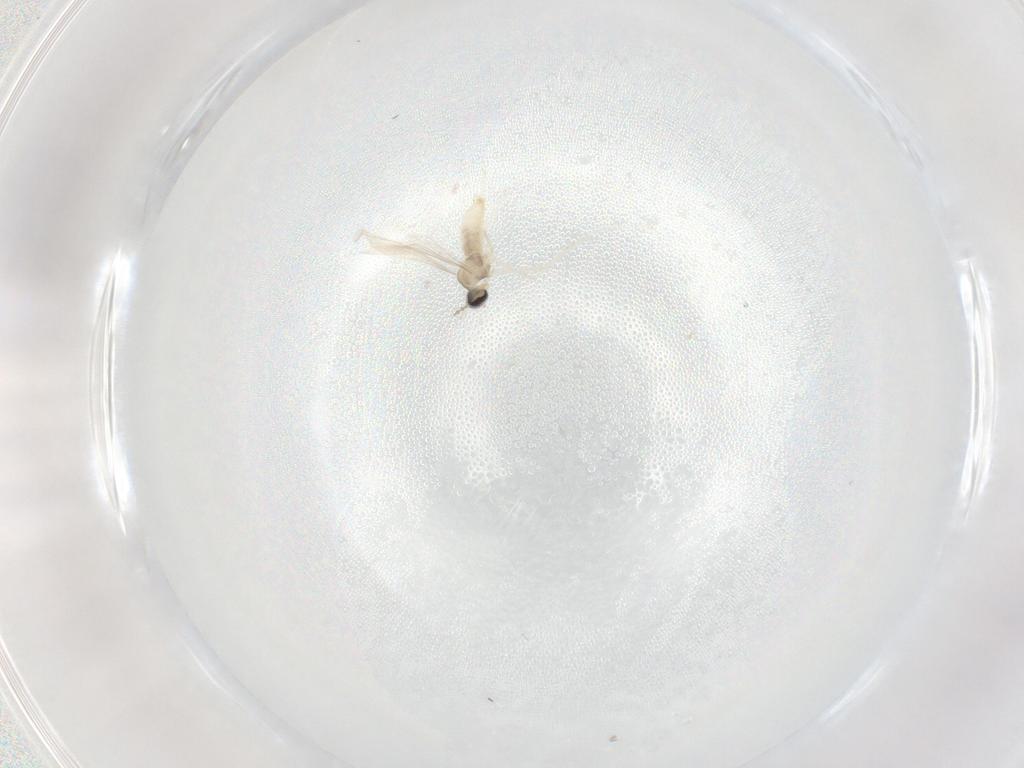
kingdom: Animalia
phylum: Arthropoda
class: Insecta
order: Diptera
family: Cecidomyiidae
